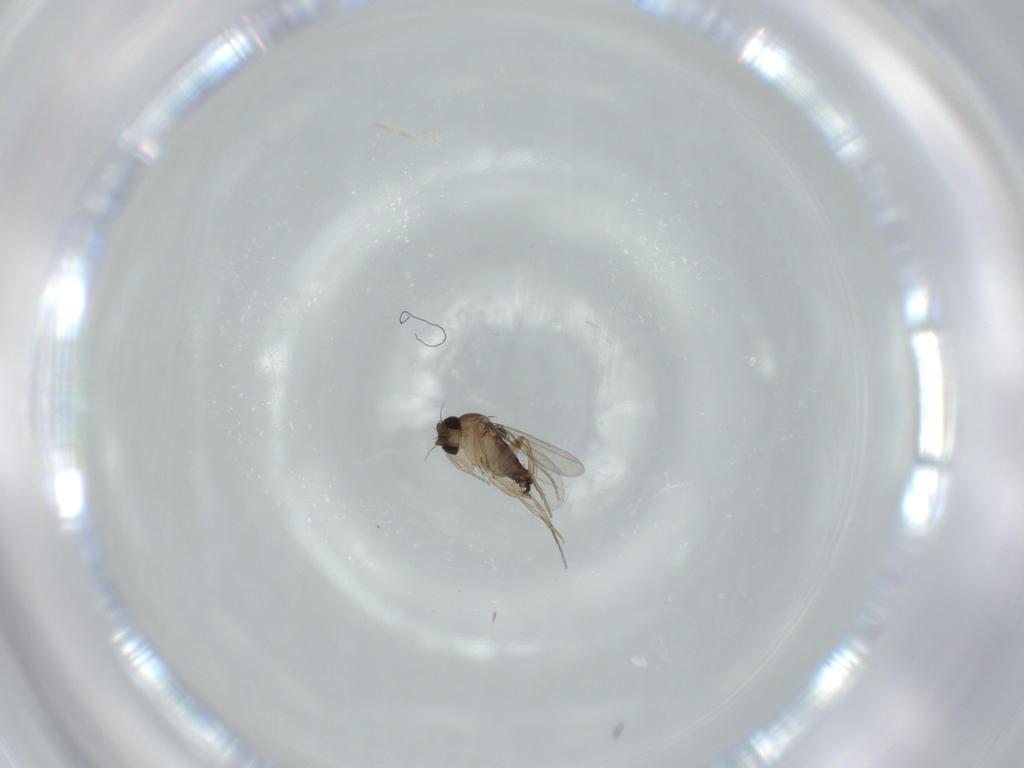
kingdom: Animalia
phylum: Arthropoda
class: Insecta
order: Diptera
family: Phoridae
